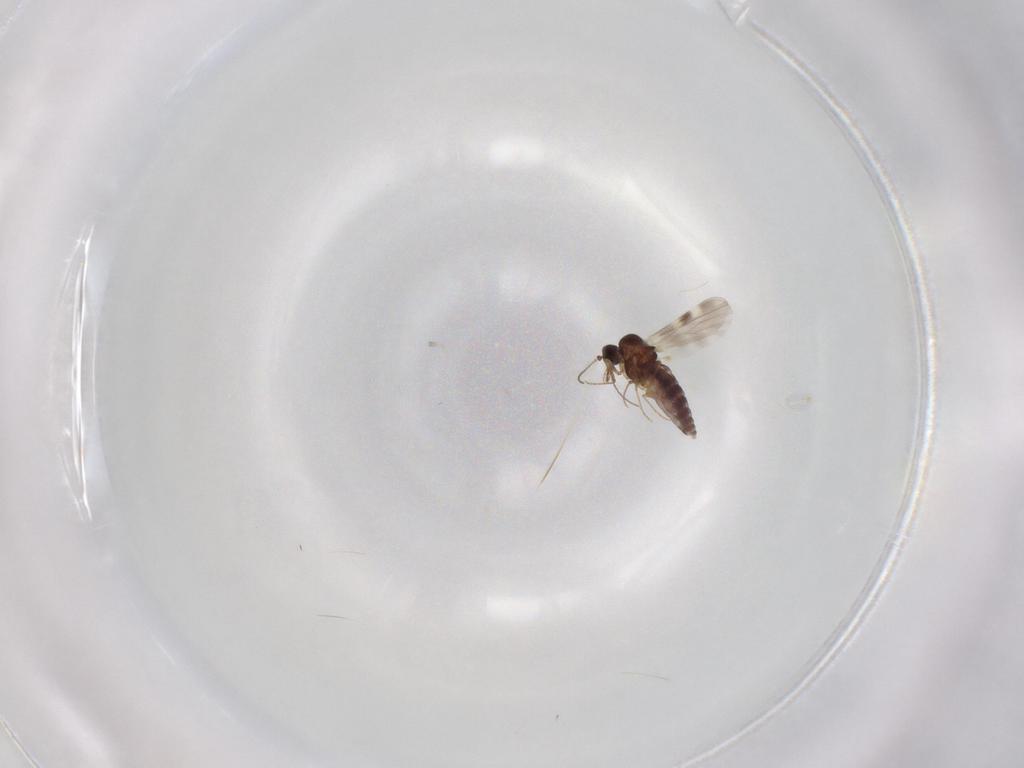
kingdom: Animalia
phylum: Arthropoda
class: Insecta
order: Diptera
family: Ceratopogonidae
